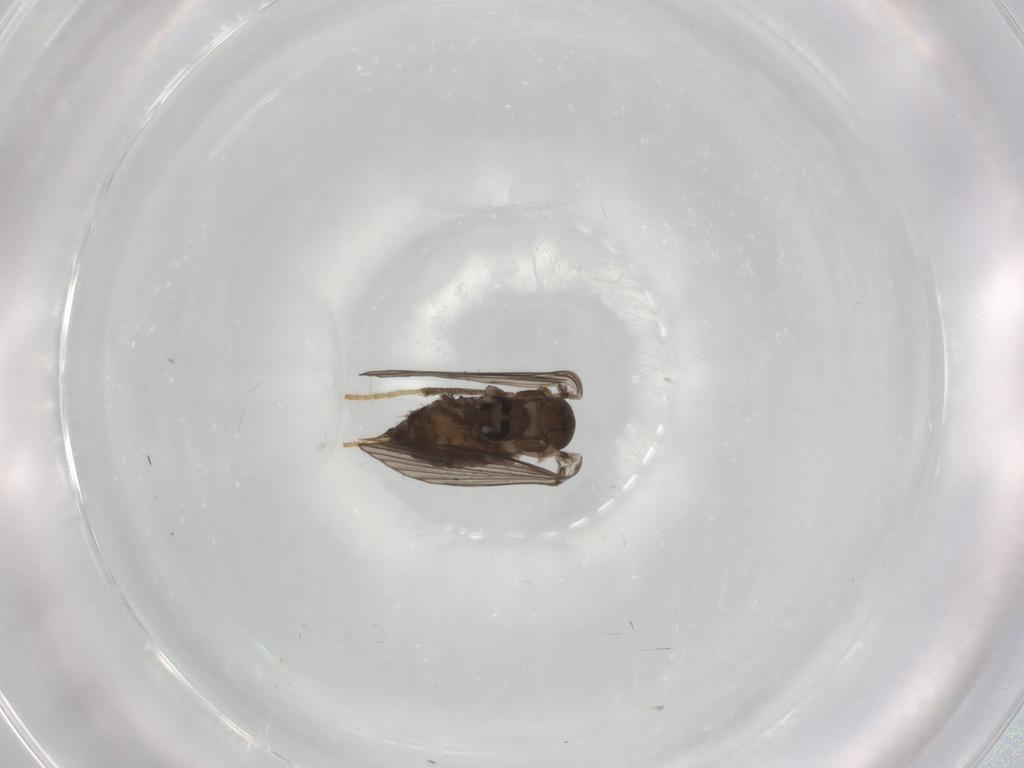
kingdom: Animalia
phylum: Arthropoda
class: Insecta
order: Diptera
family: Psychodidae
